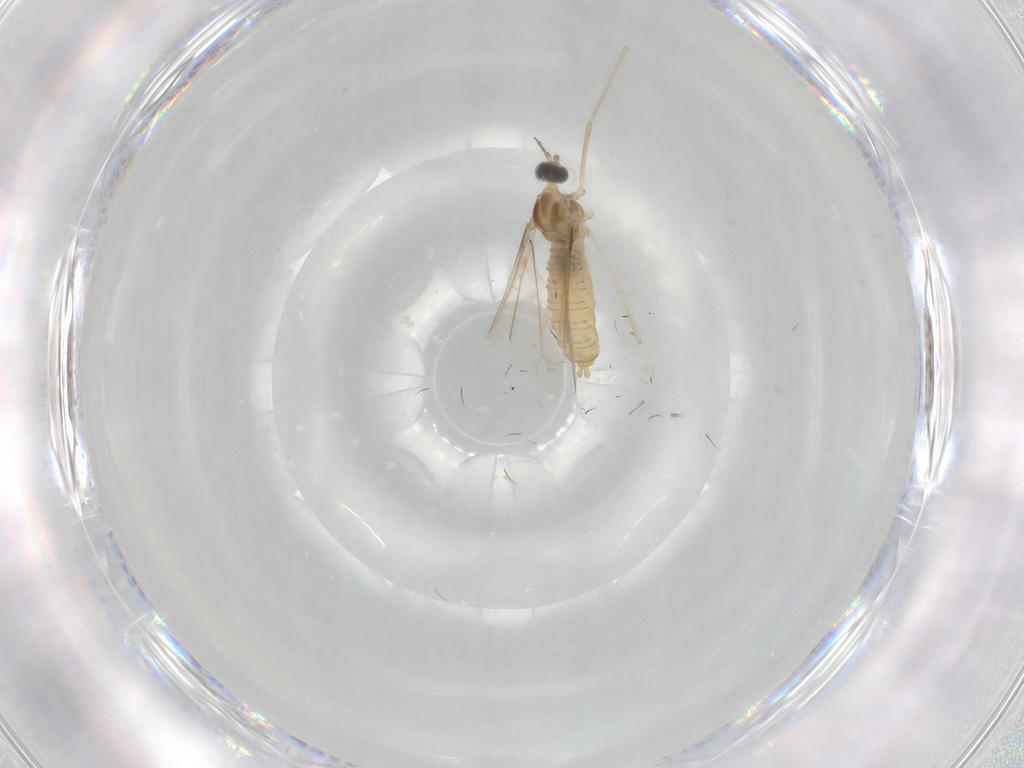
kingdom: Animalia
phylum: Arthropoda
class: Insecta
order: Diptera
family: Cecidomyiidae
